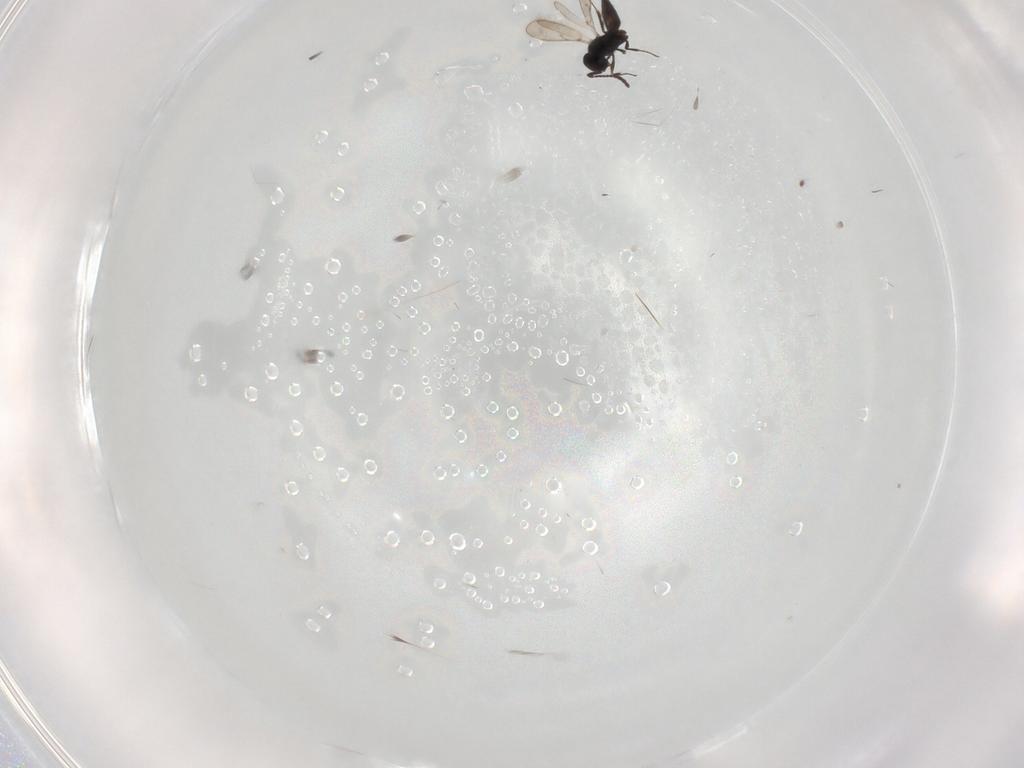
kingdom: Animalia
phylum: Arthropoda
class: Insecta
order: Hymenoptera
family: Scelionidae
